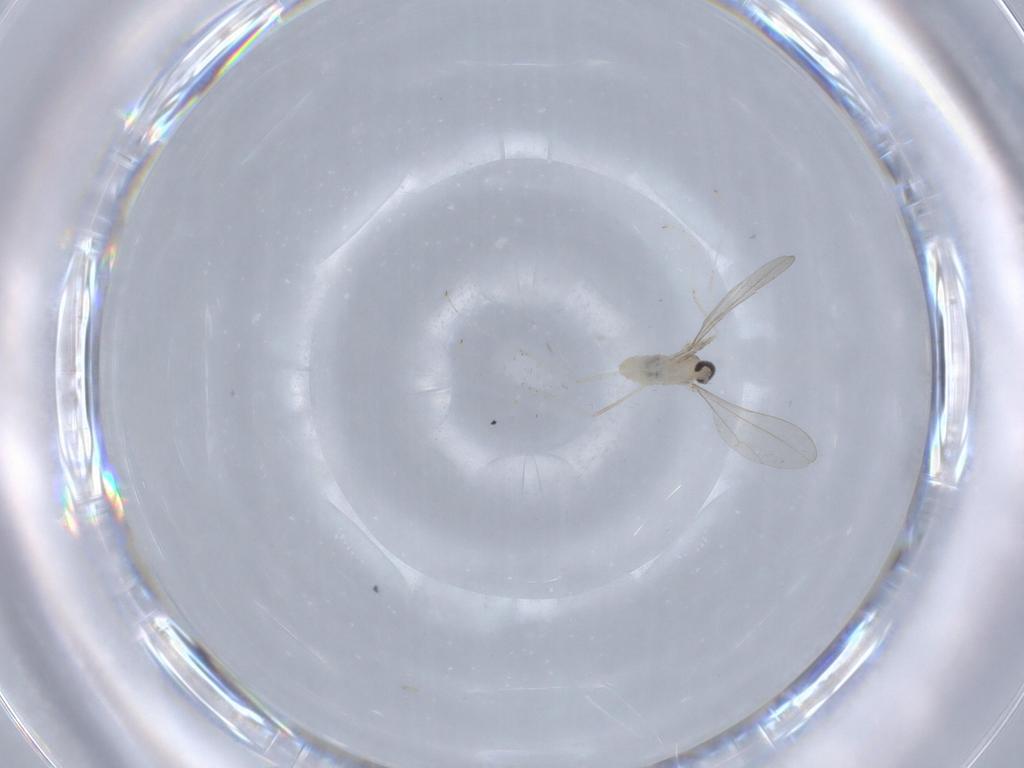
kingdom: Animalia
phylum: Arthropoda
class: Insecta
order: Diptera
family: Cecidomyiidae
